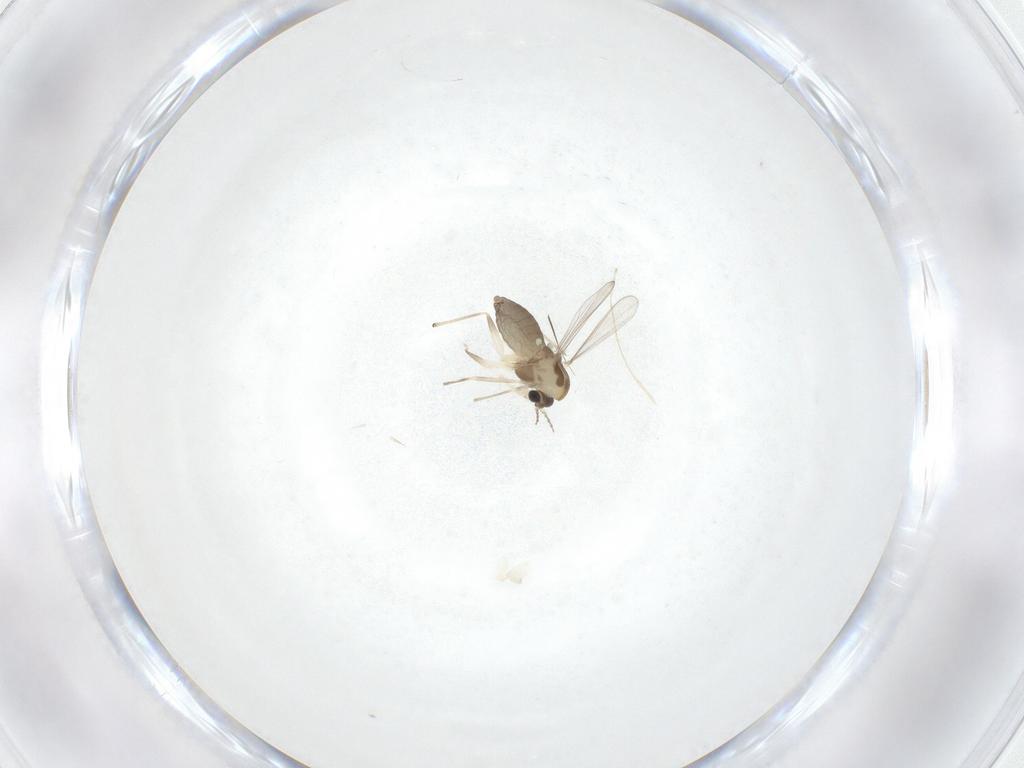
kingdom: Animalia
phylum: Arthropoda
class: Insecta
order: Diptera
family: Chironomidae
